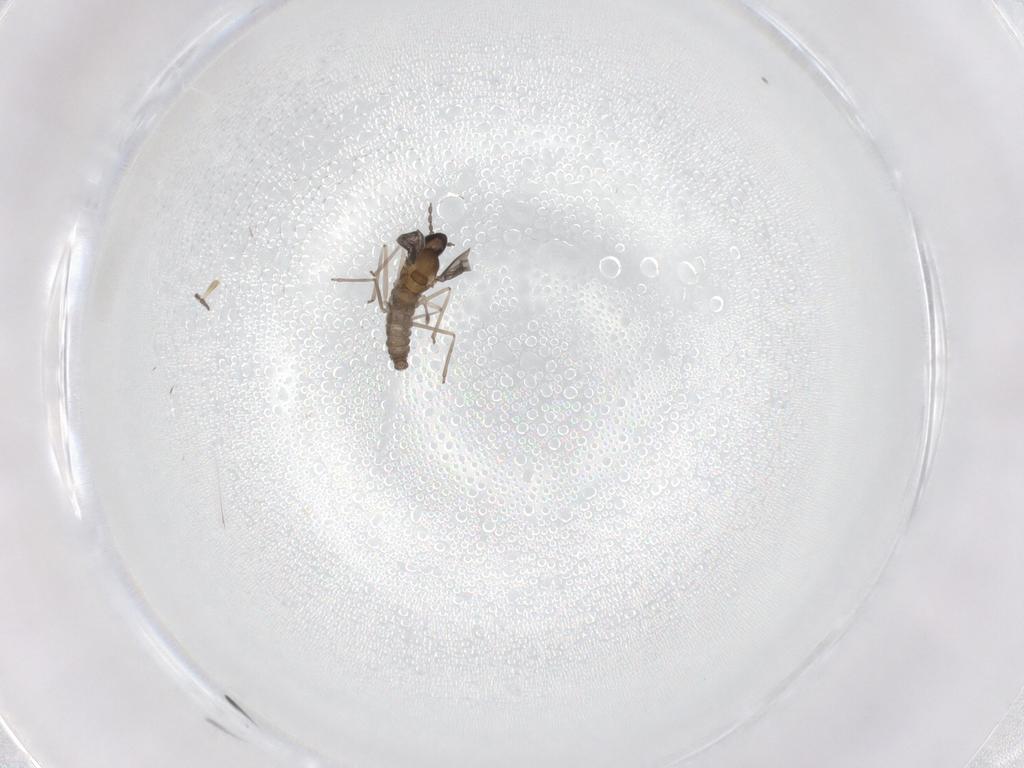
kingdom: Animalia
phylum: Arthropoda
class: Insecta
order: Diptera
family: Cecidomyiidae
